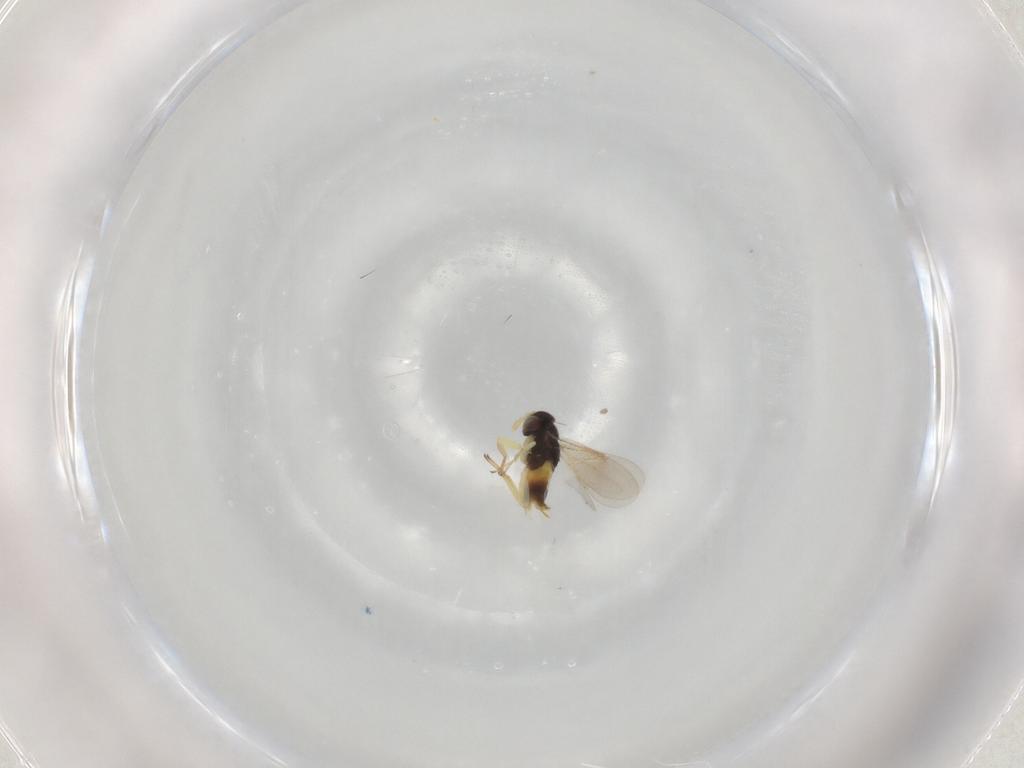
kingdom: Animalia
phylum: Arthropoda
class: Insecta
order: Hymenoptera
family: Aphelinidae
